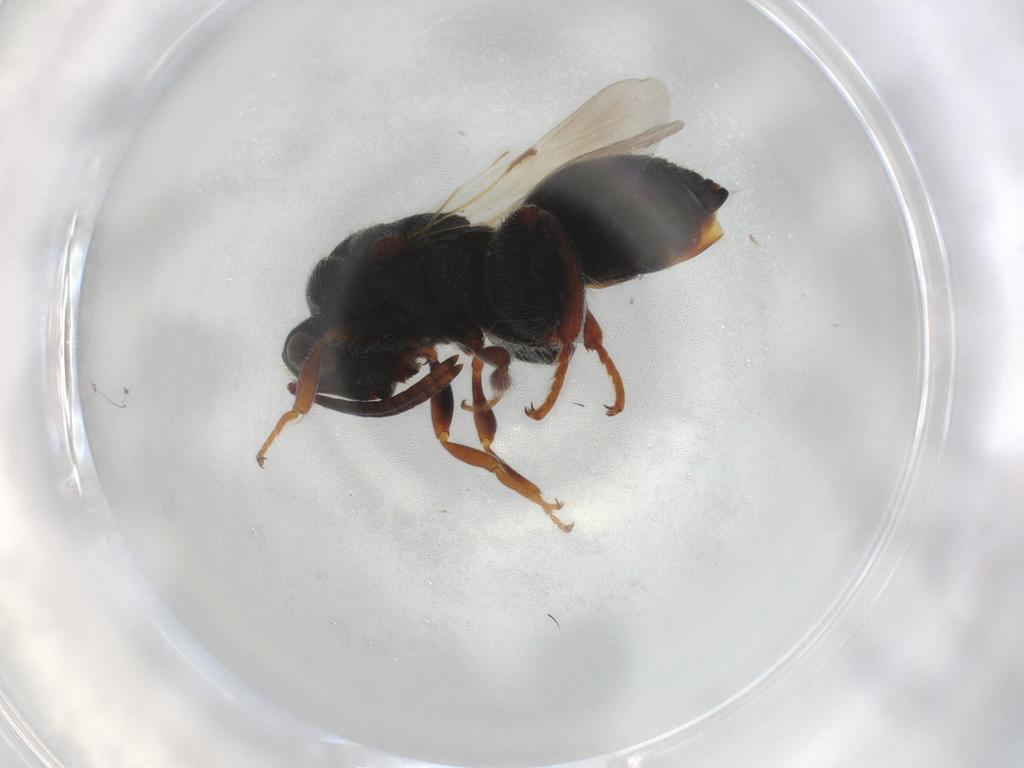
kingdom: Animalia
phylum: Arthropoda
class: Insecta
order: Hymenoptera
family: Chalcididae
